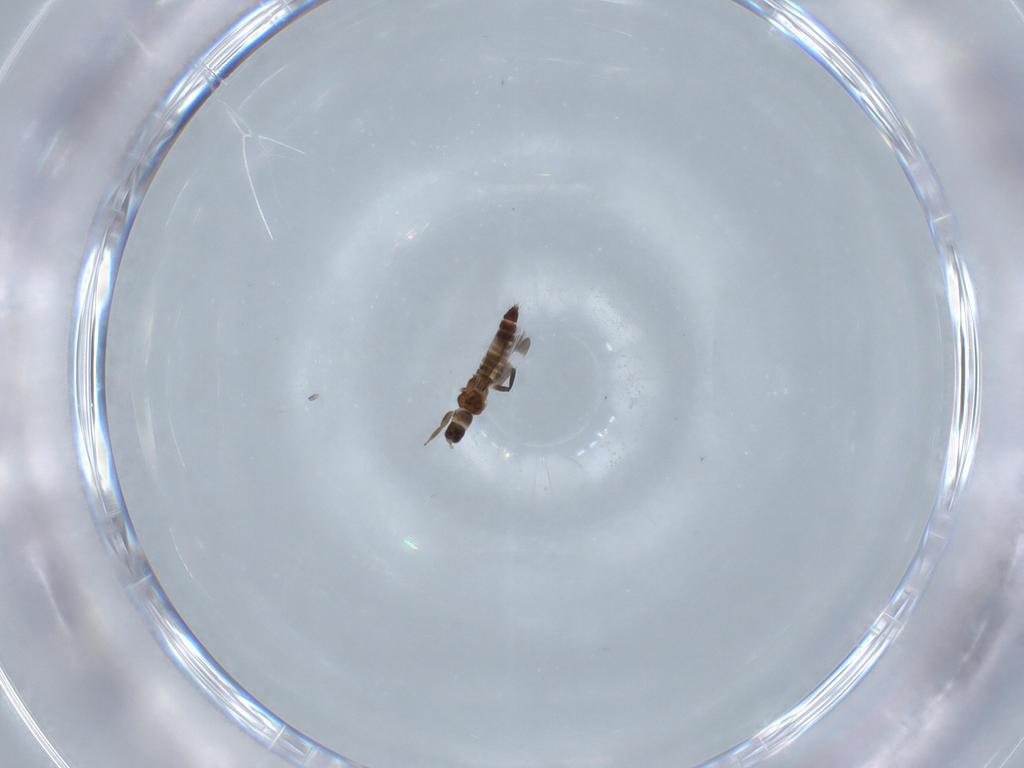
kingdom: Animalia
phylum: Arthropoda
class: Insecta
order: Thysanoptera
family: Aeolothripidae
